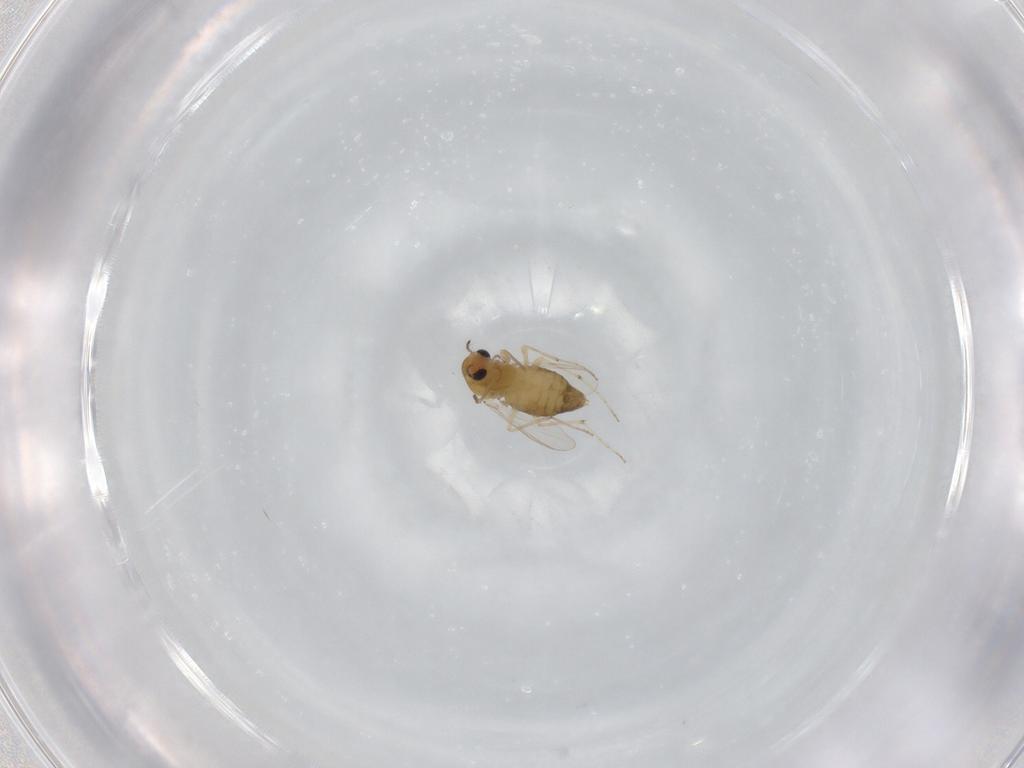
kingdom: Animalia
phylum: Arthropoda
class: Insecta
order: Diptera
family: Chironomidae
